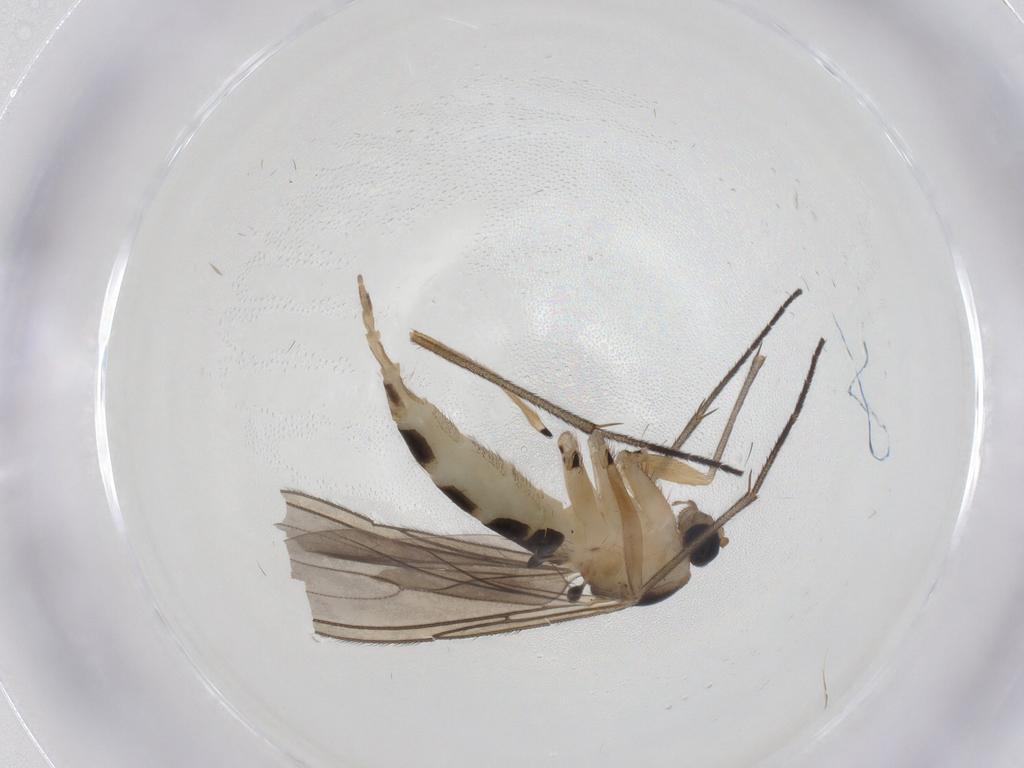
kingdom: Animalia
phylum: Arthropoda
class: Insecta
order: Diptera
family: Sciaridae
